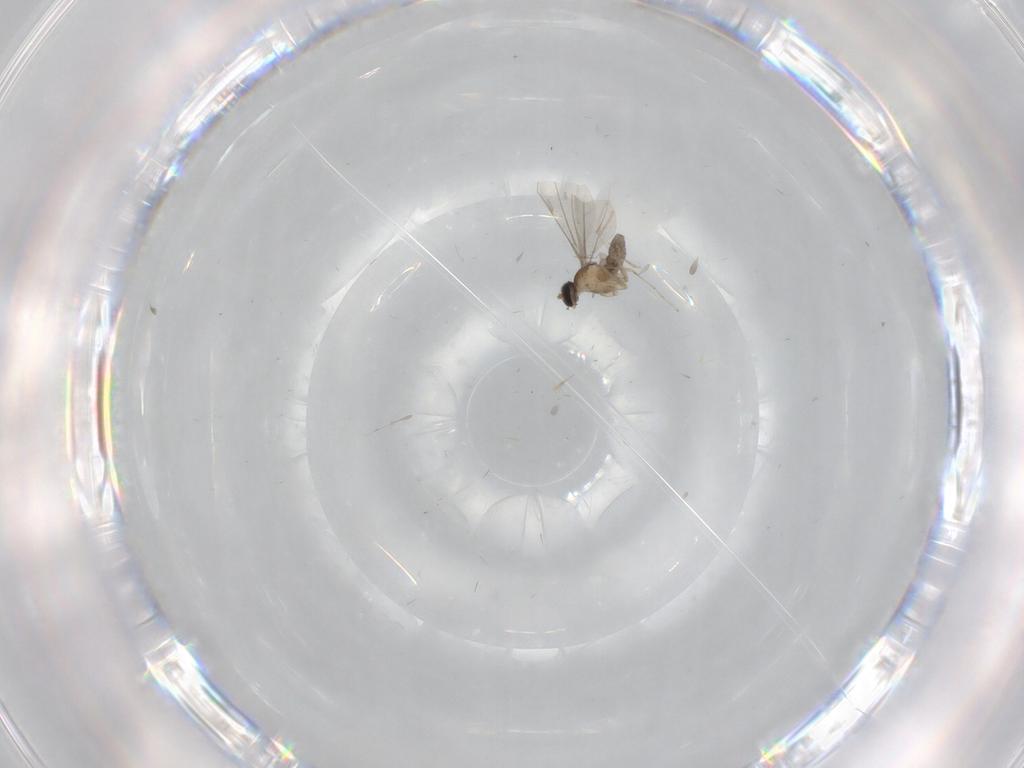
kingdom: Animalia
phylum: Arthropoda
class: Insecta
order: Diptera
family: Cecidomyiidae
